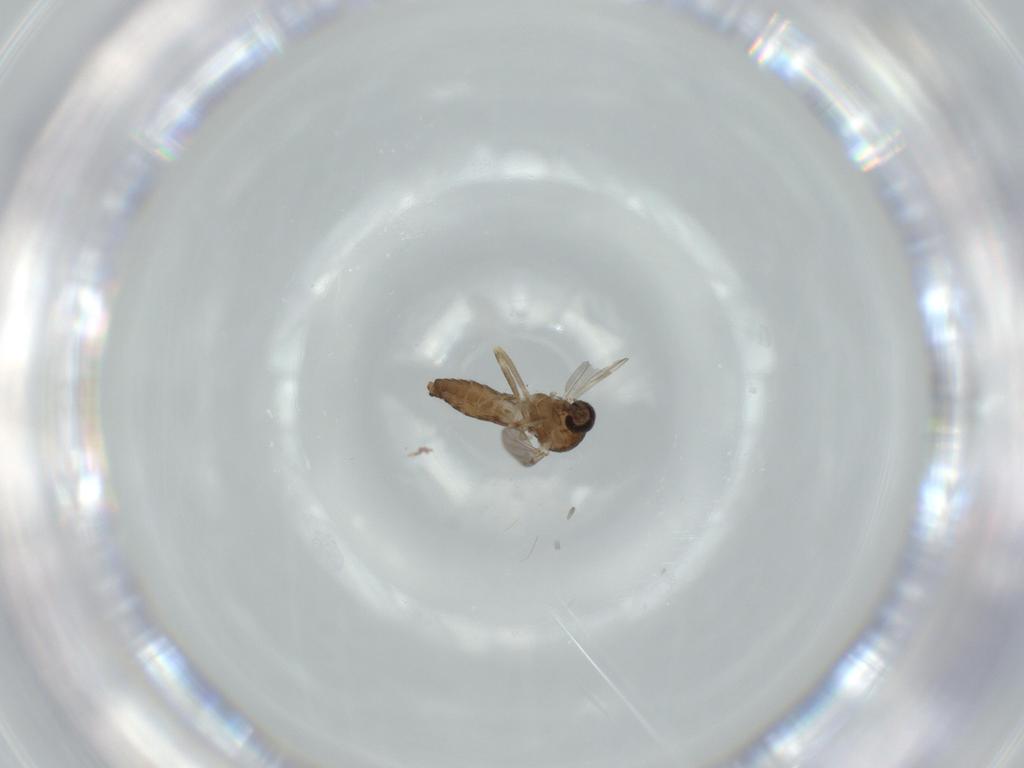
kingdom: Animalia
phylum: Arthropoda
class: Insecta
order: Diptera
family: Ceratopogonidae
